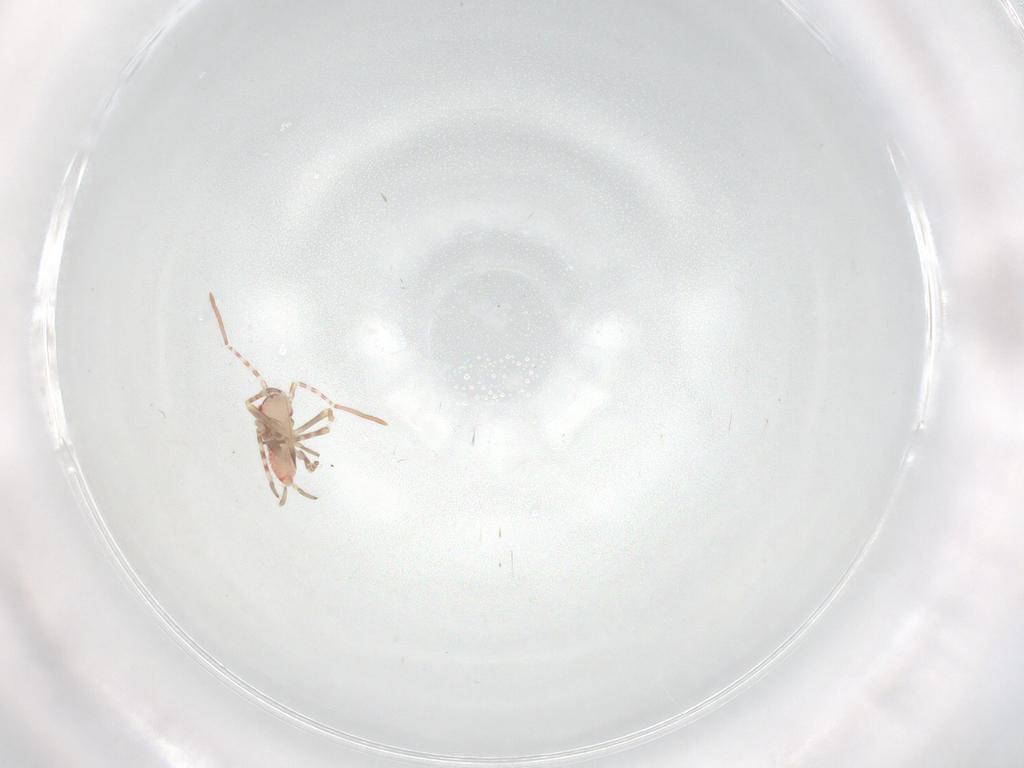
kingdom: Animalia
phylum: Arthropoda
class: Insecta
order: Hemiptera
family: Miridae
